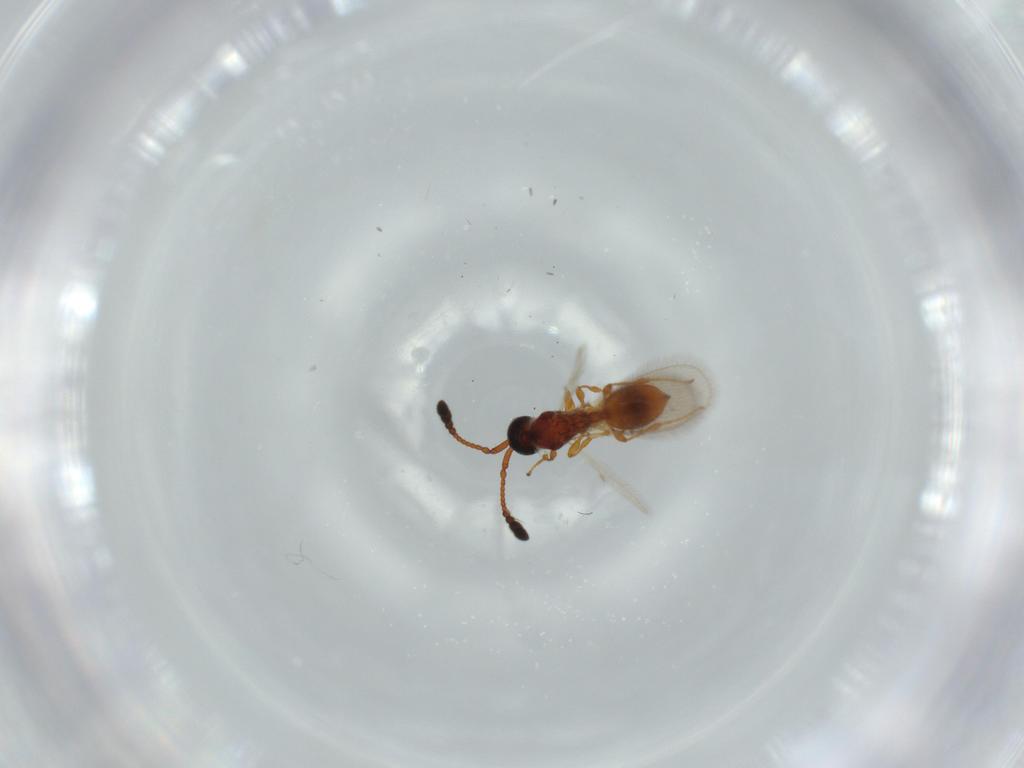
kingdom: Animalia
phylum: Arthropoda
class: Insecta
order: Hymenoptera
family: Diapriidae
